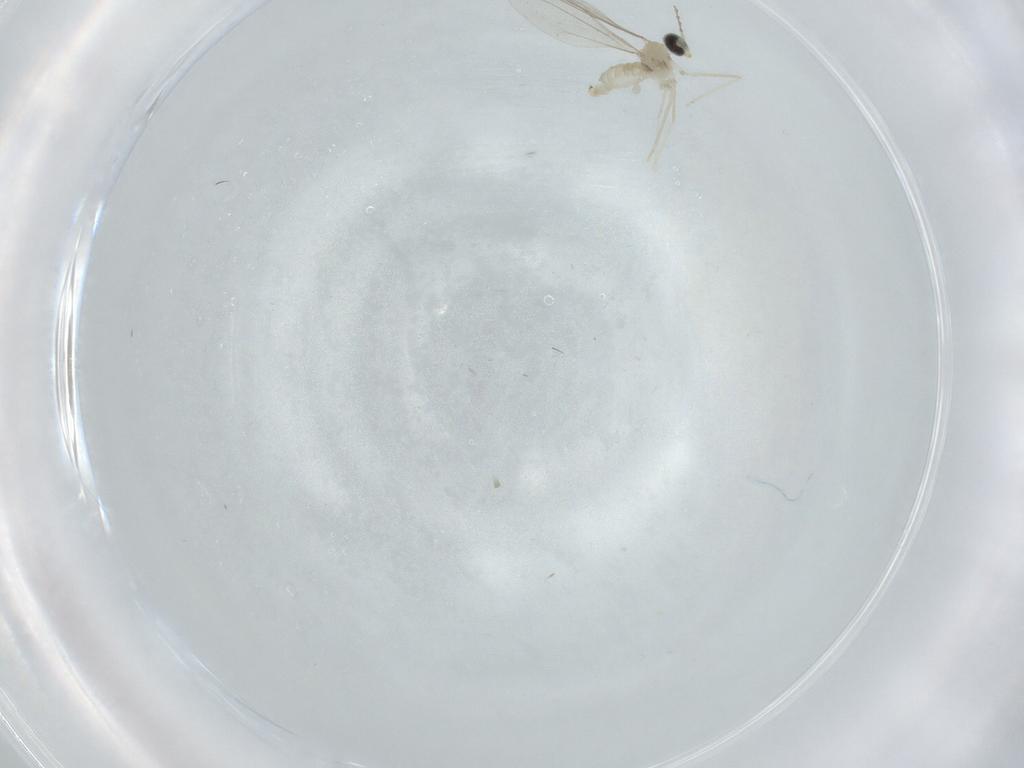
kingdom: Animalia
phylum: Arthropoda
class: Insecta
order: Diptera
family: Cecidomyiidae
